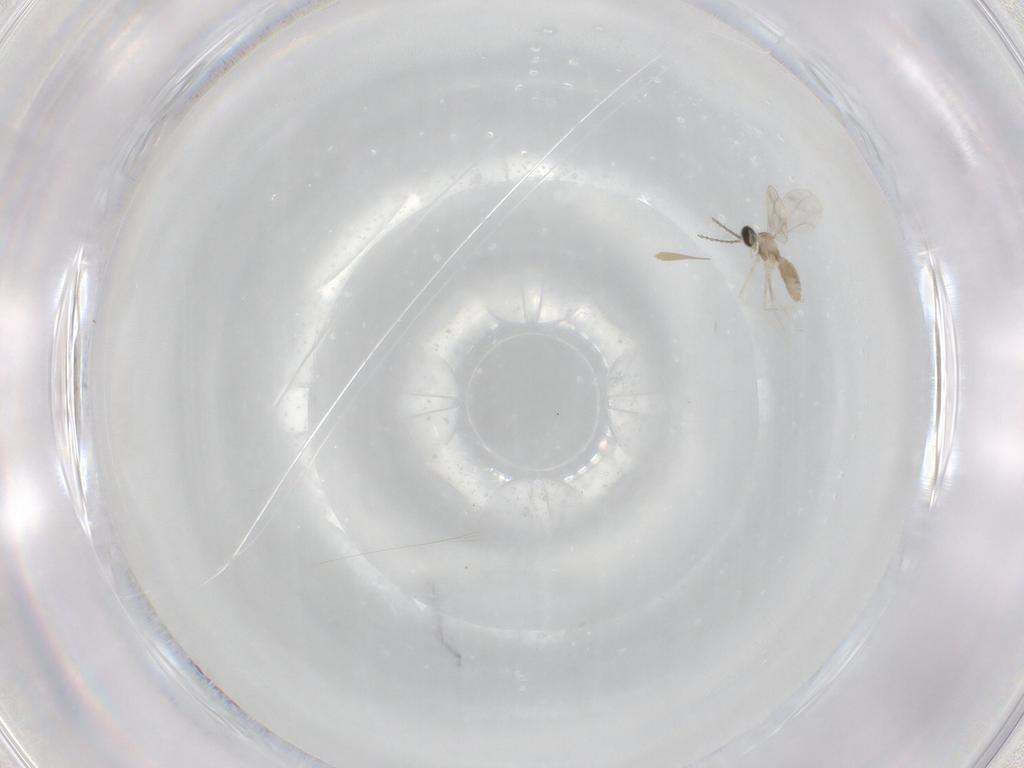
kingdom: Animalia
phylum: Arthropoda
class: Insecta
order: Diptera
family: Cecidomyiidae
